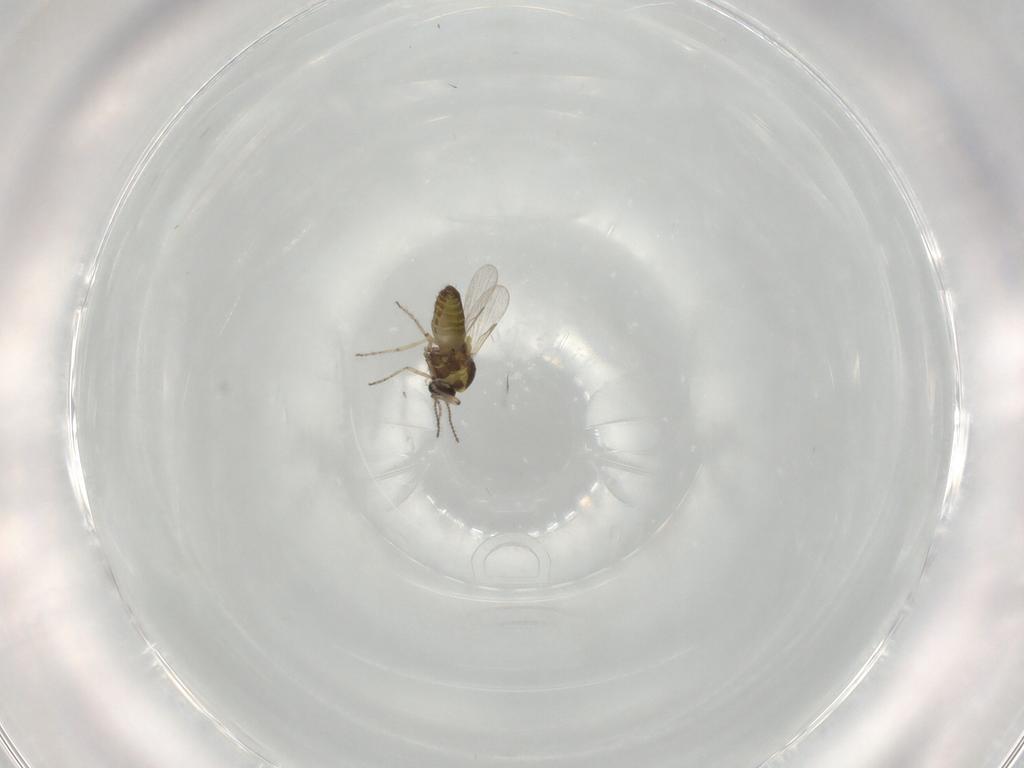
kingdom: Animalia
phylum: Arthropoda
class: Insecta
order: Diptera
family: Ceratopogonidae
